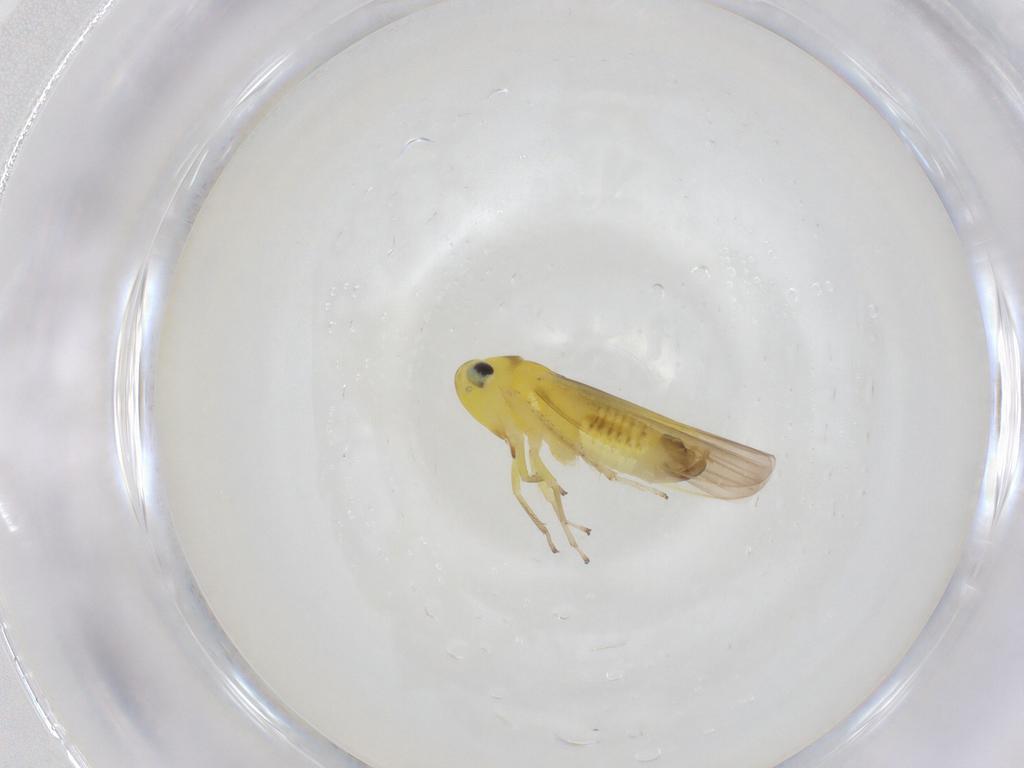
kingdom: Animalia
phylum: Arthropoda
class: Insecta
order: Hemiptera
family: Cicadellidae
